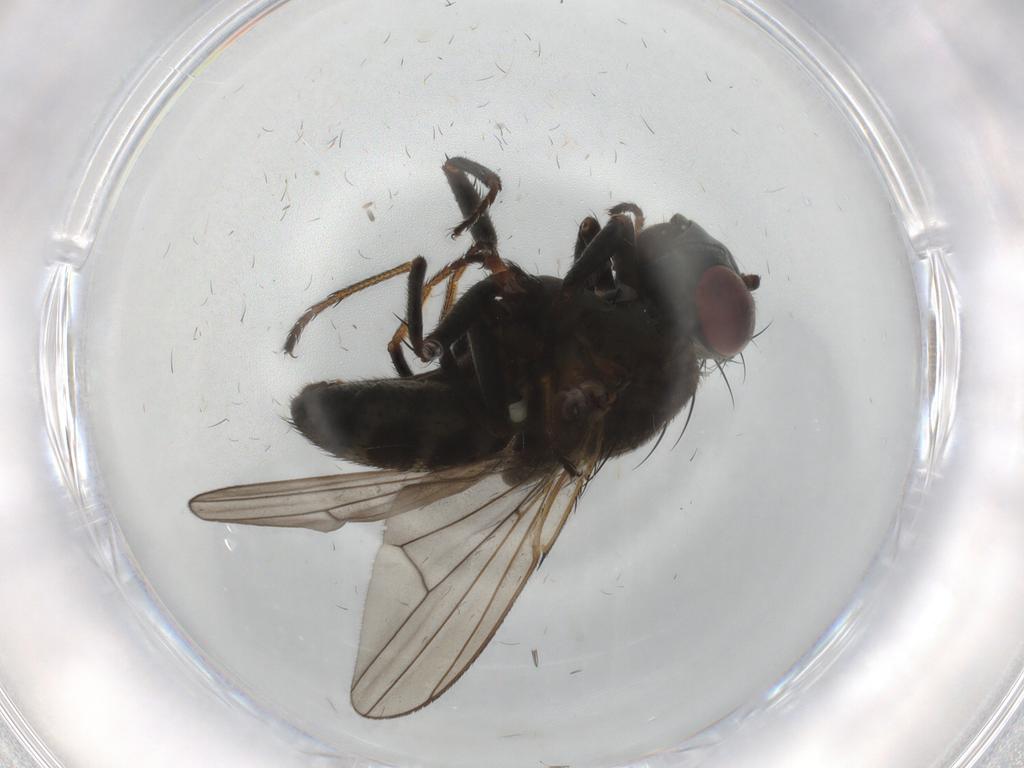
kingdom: Animalia
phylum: Arthropoda
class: Insecta
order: Diptera
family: Ephydridae
